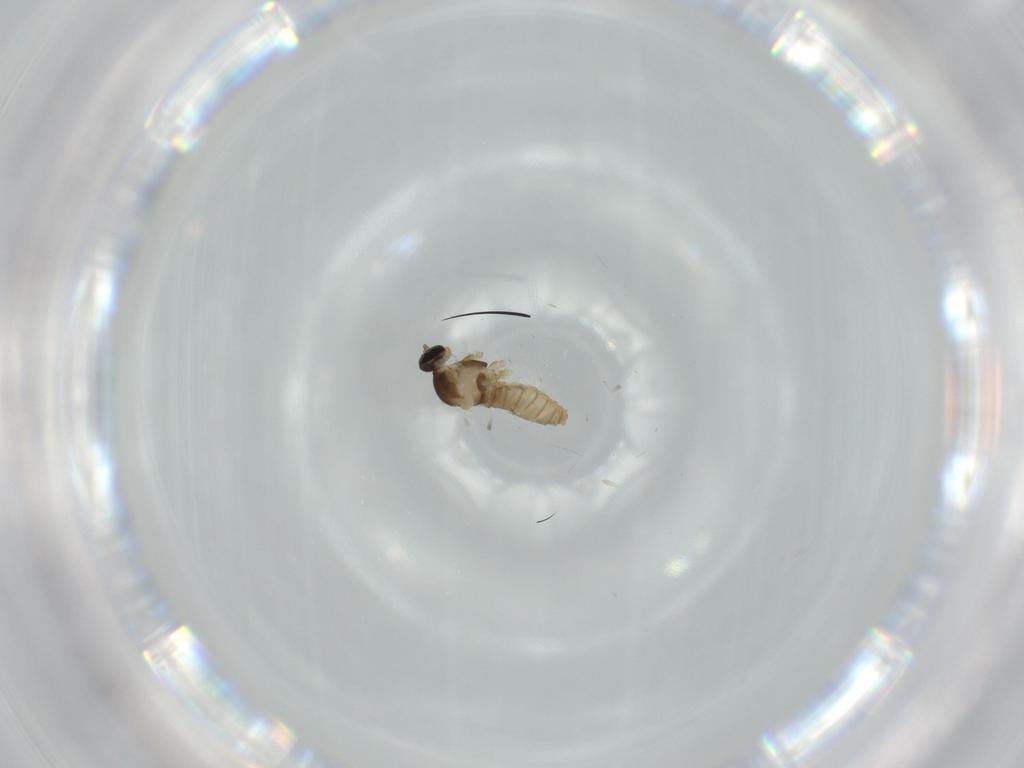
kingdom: Animalia
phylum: Arthropoda
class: Insecta
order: Diptera
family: Cecidomyiidae
